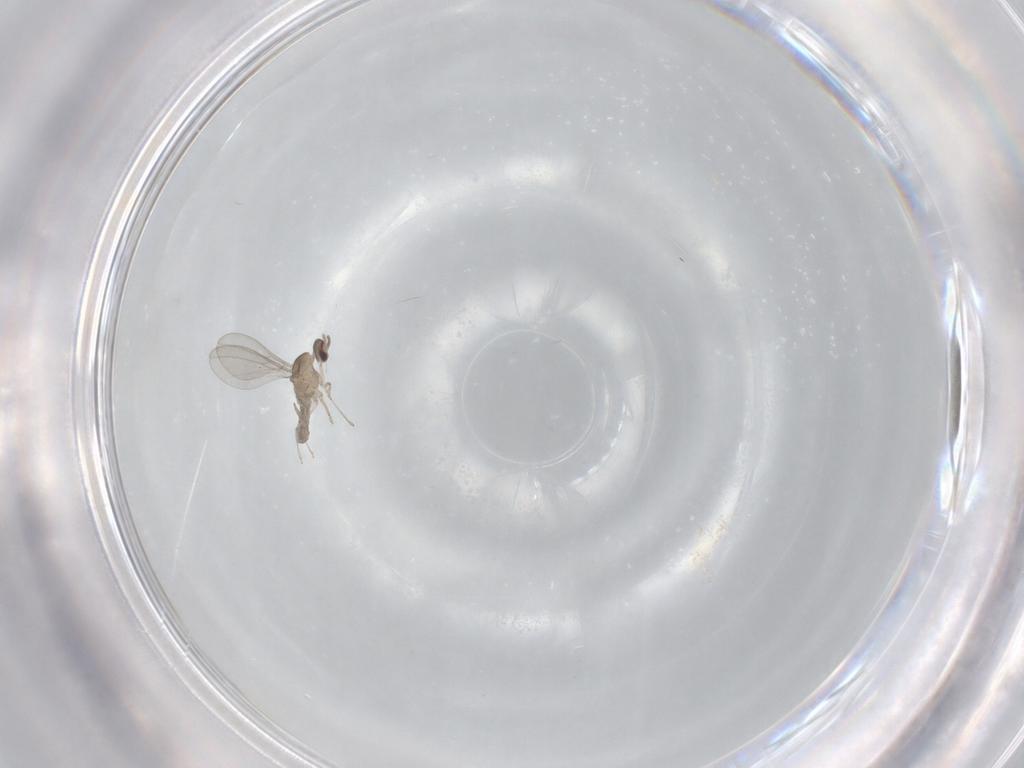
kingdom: Animalia
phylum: Arthropoda
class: Insecta
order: Diptera
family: Cecidomyiidae
